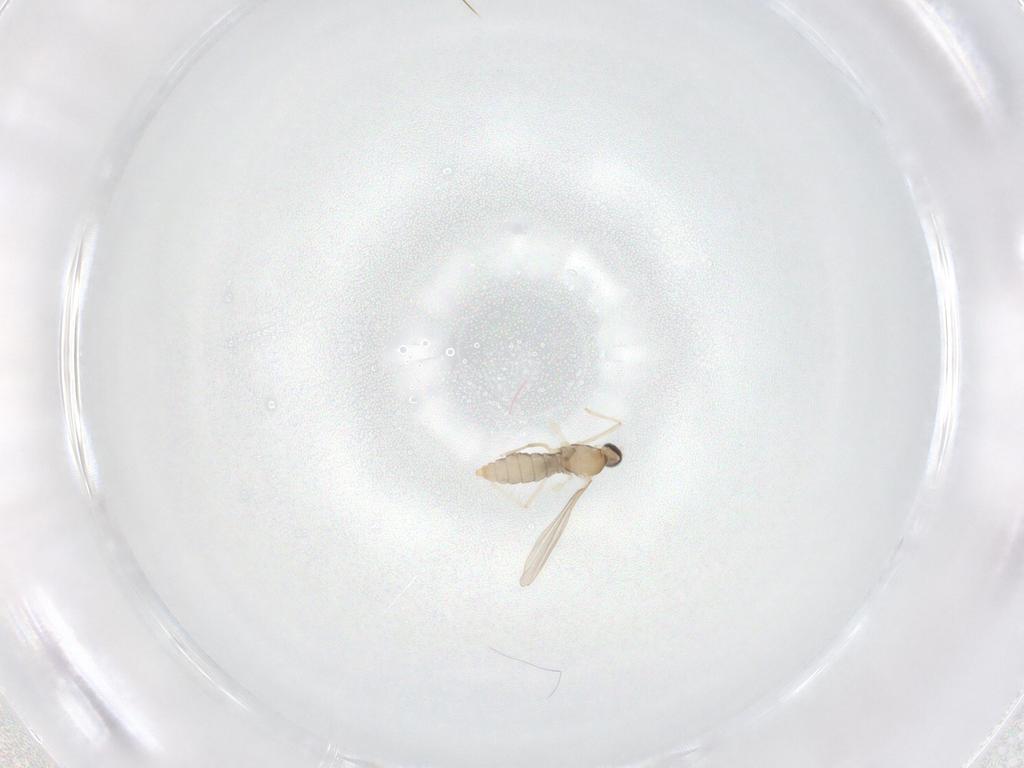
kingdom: Animalia
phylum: Arthropoda
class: Insecta
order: Diptera
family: Cecidomyiidae
